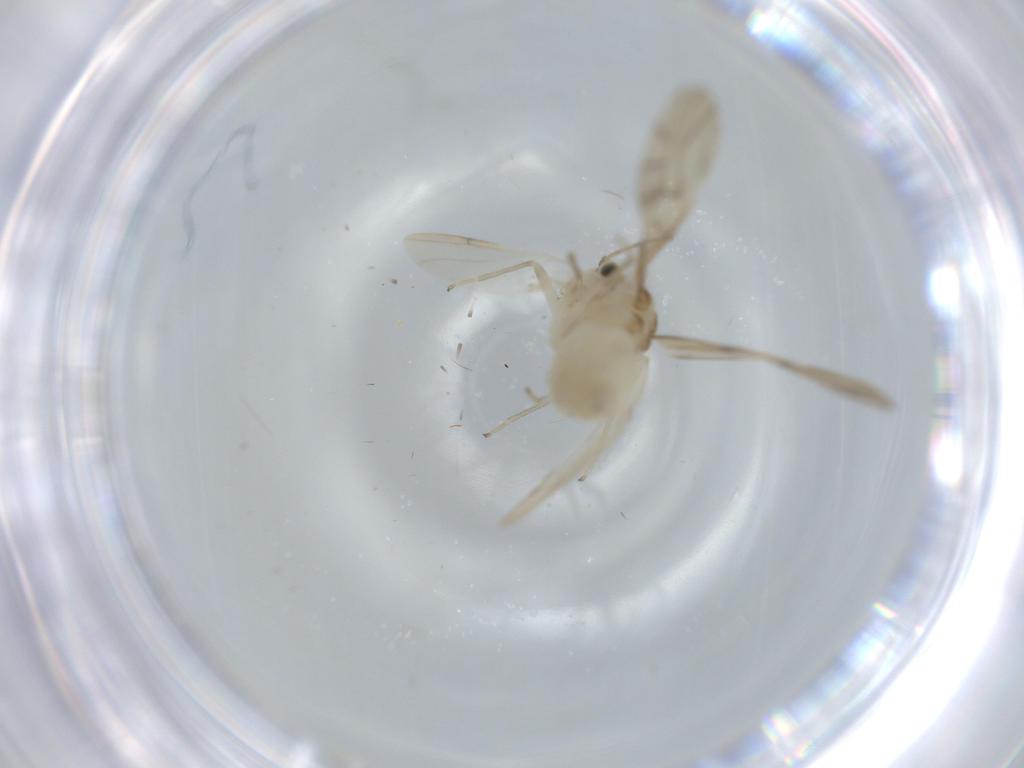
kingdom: Animalia
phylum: Arthropoda
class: Insecta
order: Psocodea
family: Caeciliusidae
